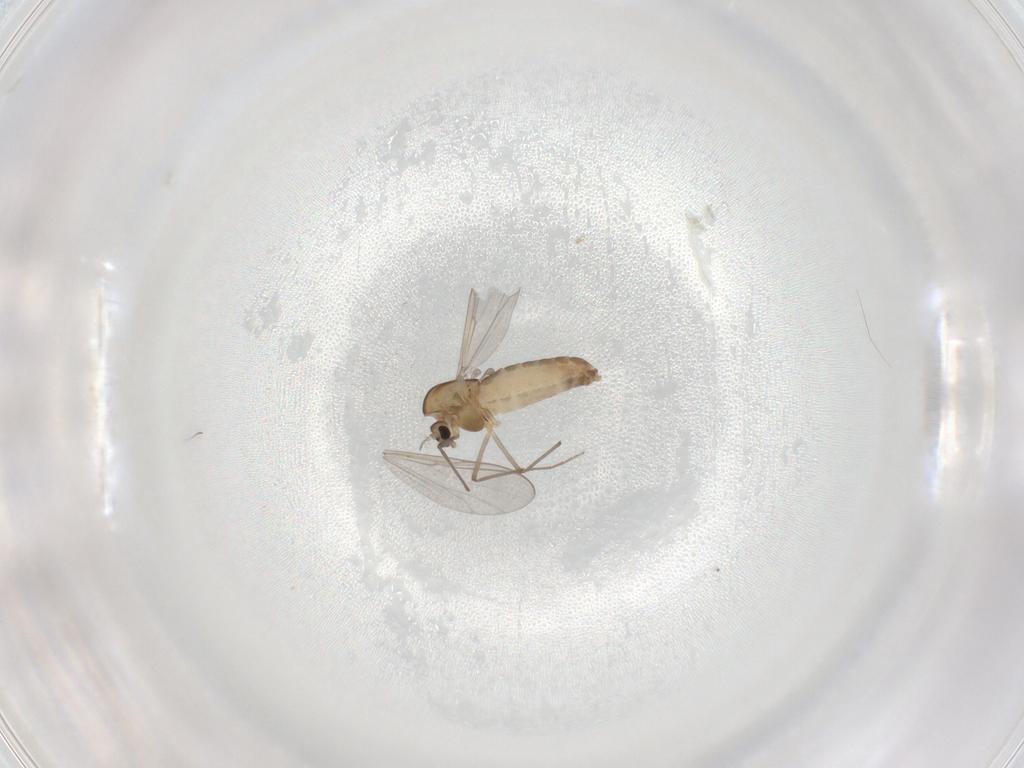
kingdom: Animalia
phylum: Arthropoda
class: Insecta
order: Diptera
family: Chironomidae
